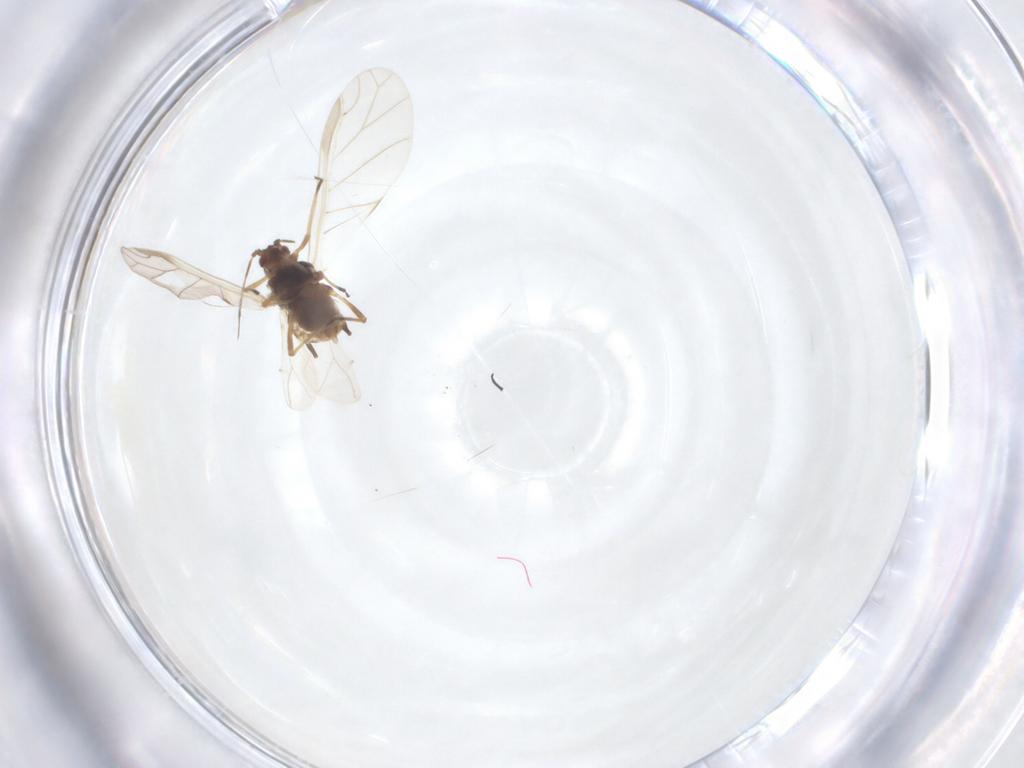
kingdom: Animalia
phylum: Arthropoda
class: Insecta
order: Hemiptera
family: Aphididae
